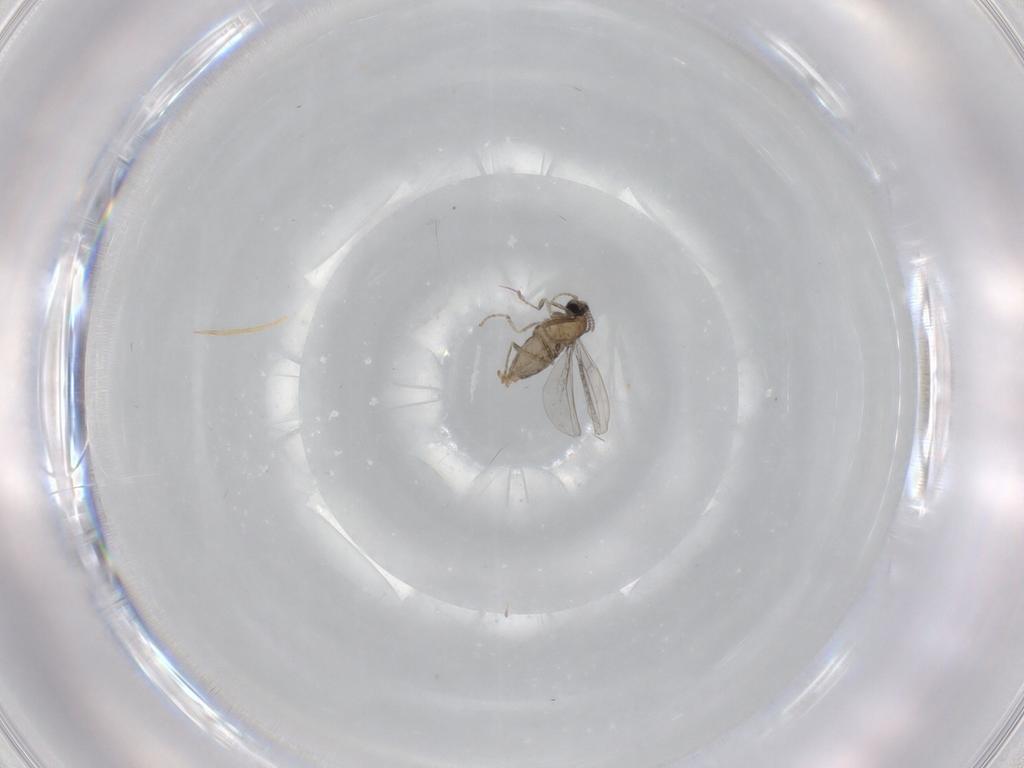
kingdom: Animalia
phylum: Arthropoda
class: Insecta
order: Diptera
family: Cecidomyiidae
